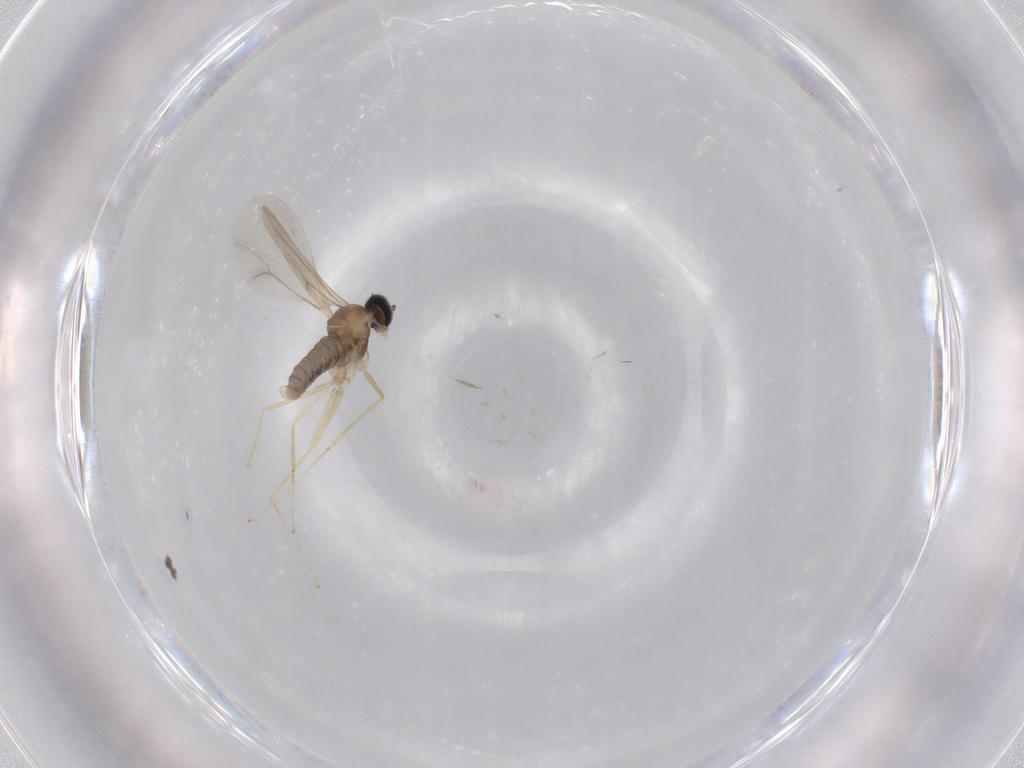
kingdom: Animalia
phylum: Arthropoda
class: Insecta
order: Diptera
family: Cecidomyiidae
